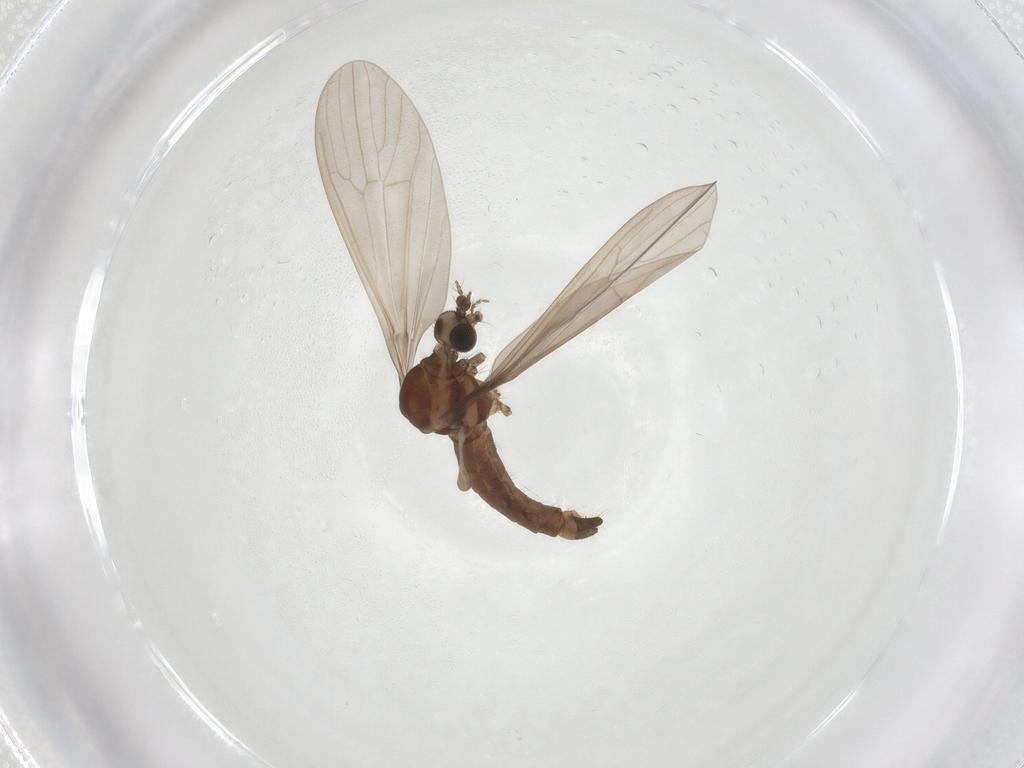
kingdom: Animalia
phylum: Arthropoda
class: Insecta
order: Diptera
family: Limoniidae
